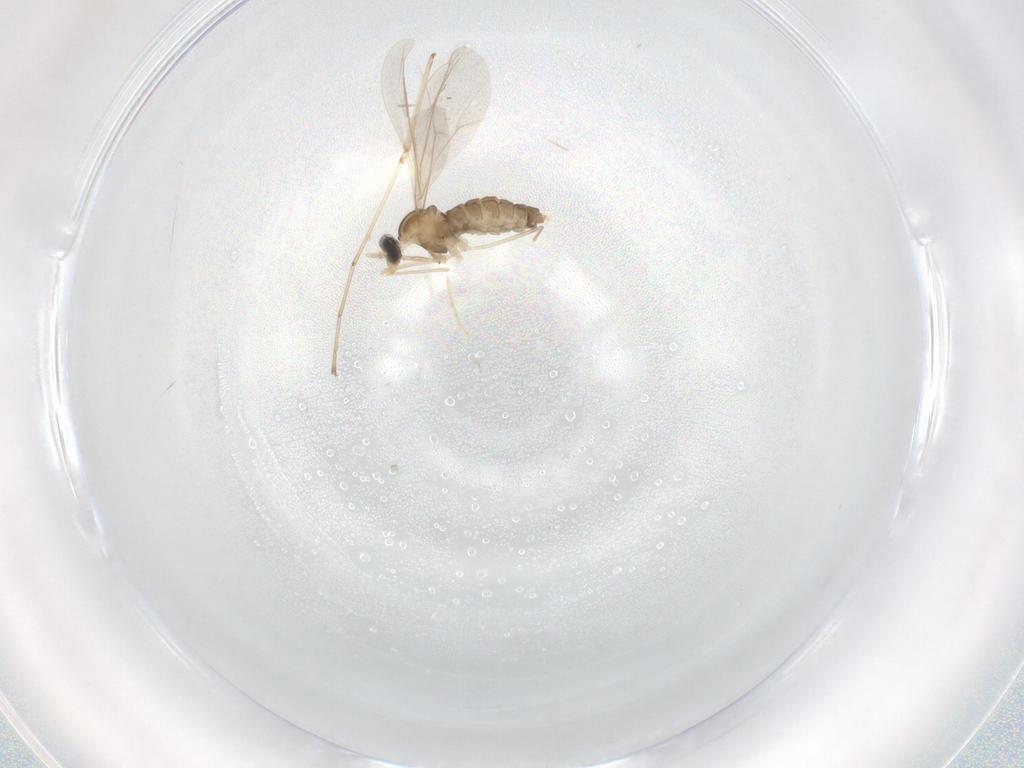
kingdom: Animalia
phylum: Arthropoda
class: Insecta
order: Diptera
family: Cecidomyiidae
